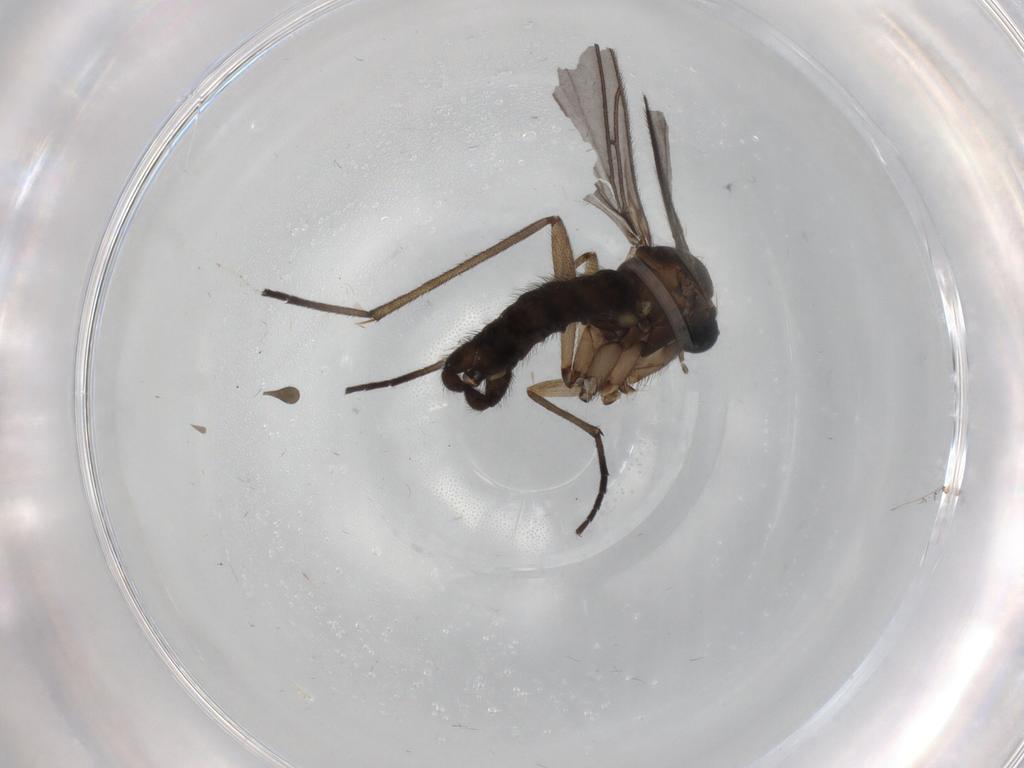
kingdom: Animalia
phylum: Arthropoda
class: Insecta
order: Diptera
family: Sciaridae
